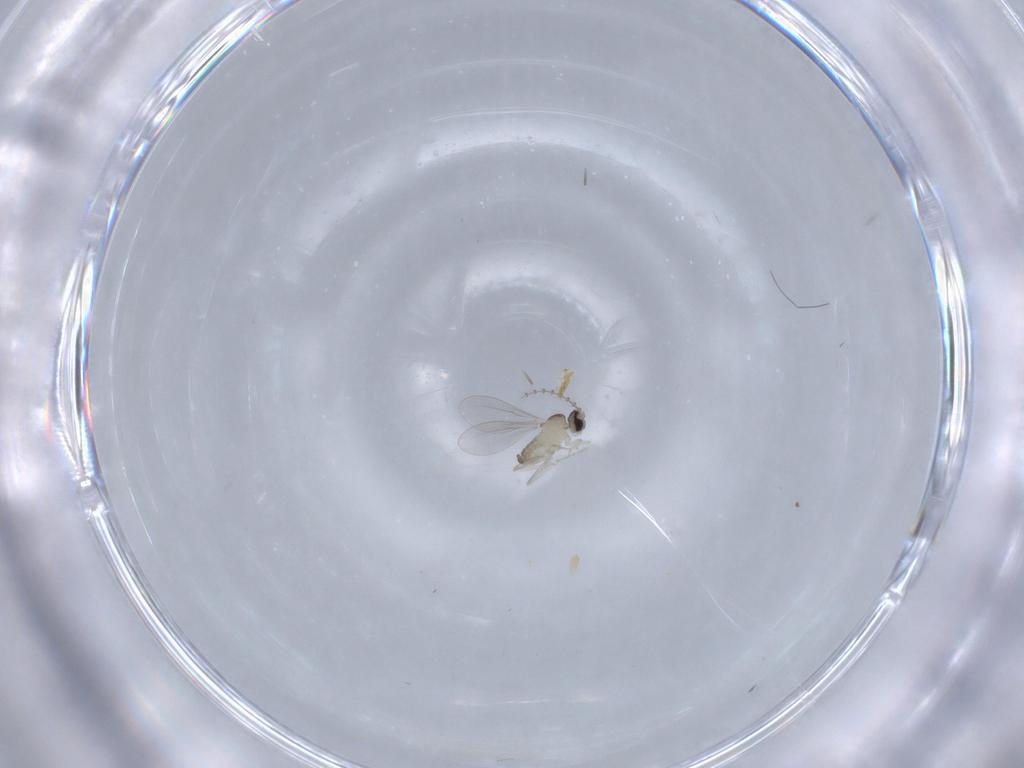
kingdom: Animalia
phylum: Arthropoda
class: Insecta
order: Diptera
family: Cecidomyiidae
